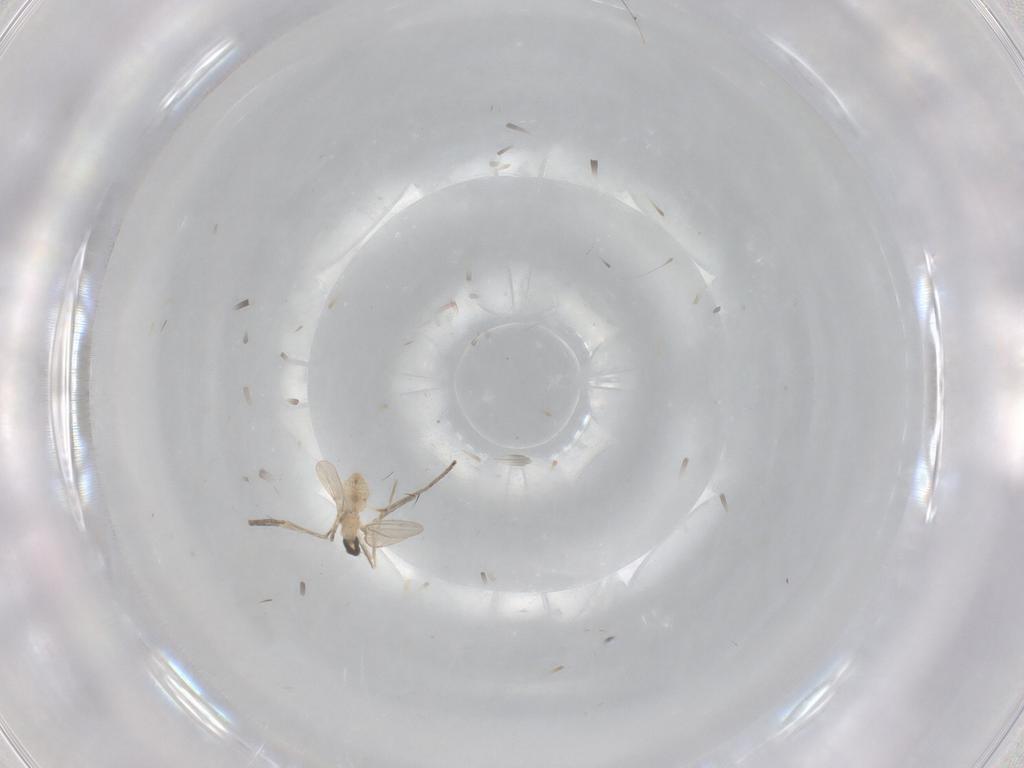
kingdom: Animalia
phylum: Arthropoda
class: Insecta
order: Diptera
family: Cecidomyiidae
